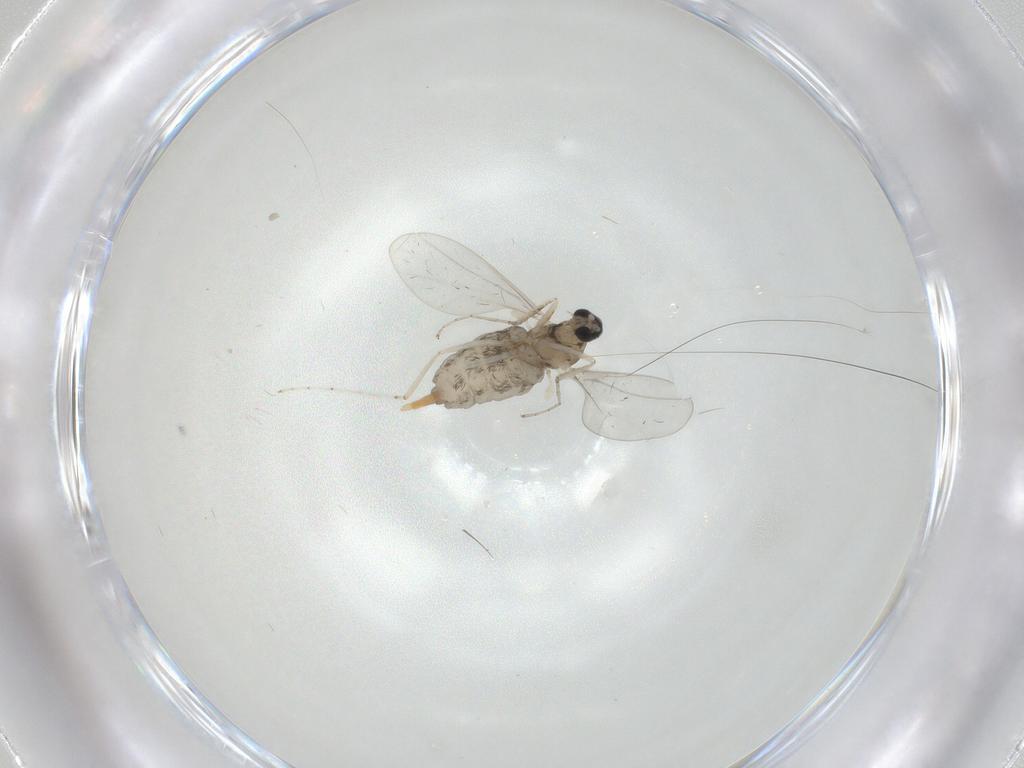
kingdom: Animalia
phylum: Arthropoda
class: Insecta
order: Diptera
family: Cecidomyiidae
